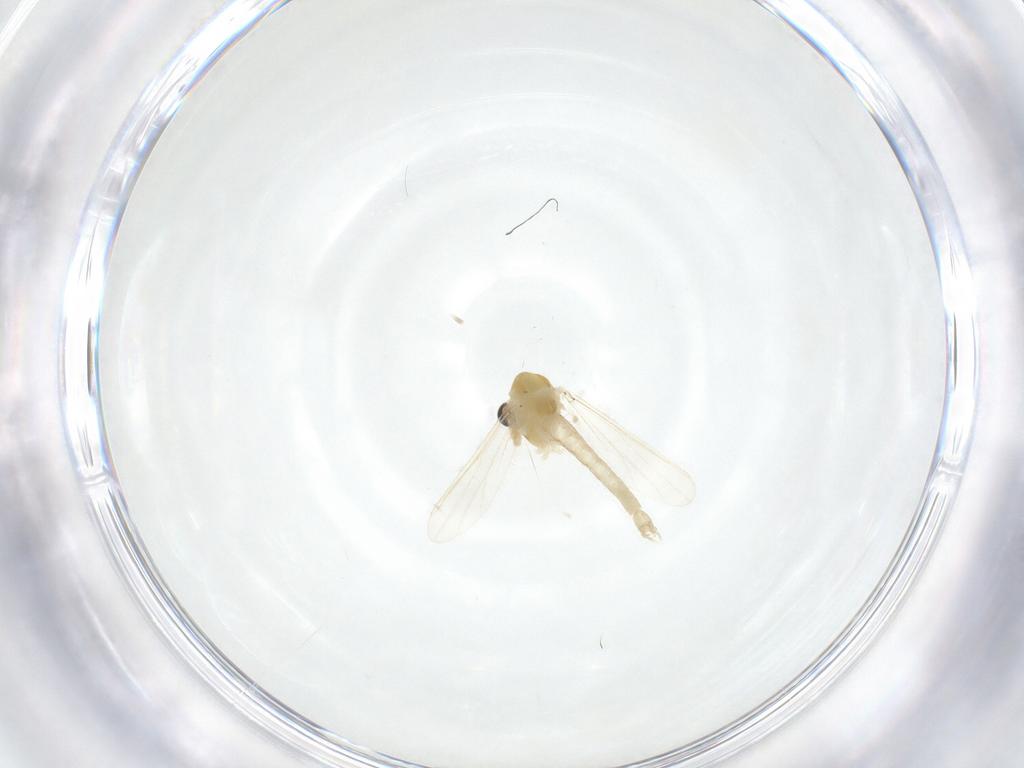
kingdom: Animalia
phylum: Arthropoda
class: Insecta
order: Diptera
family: Chironomidae
